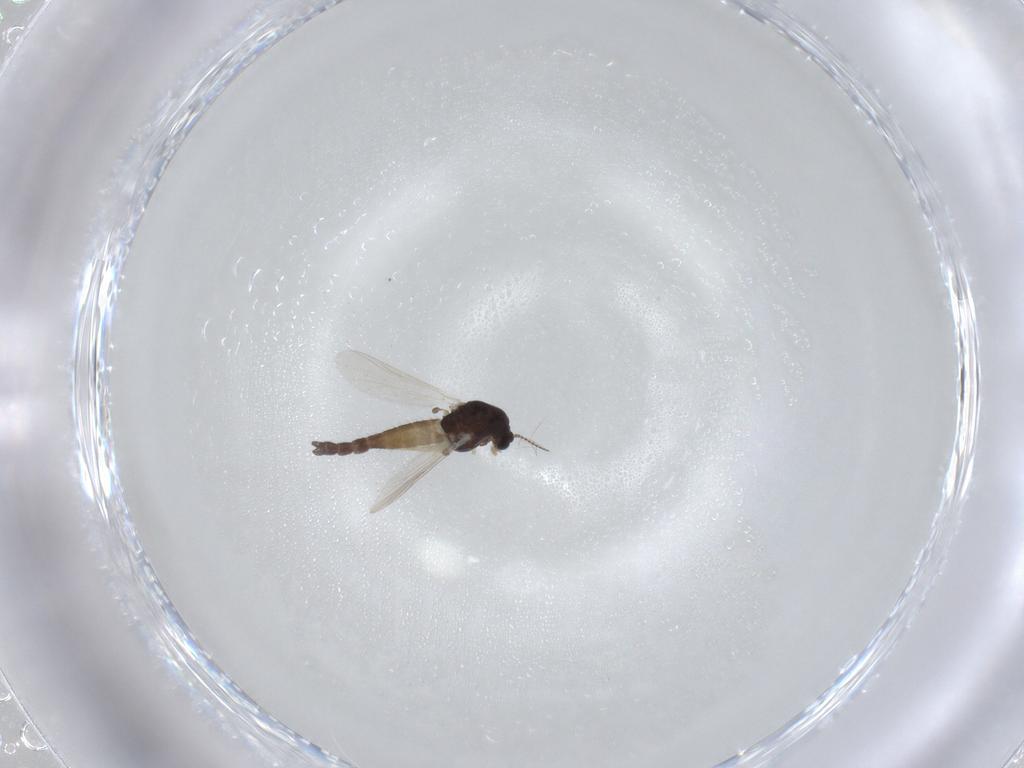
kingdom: Animalia
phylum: Arthropoda
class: Insecta
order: Diptera
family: Chironomidae
